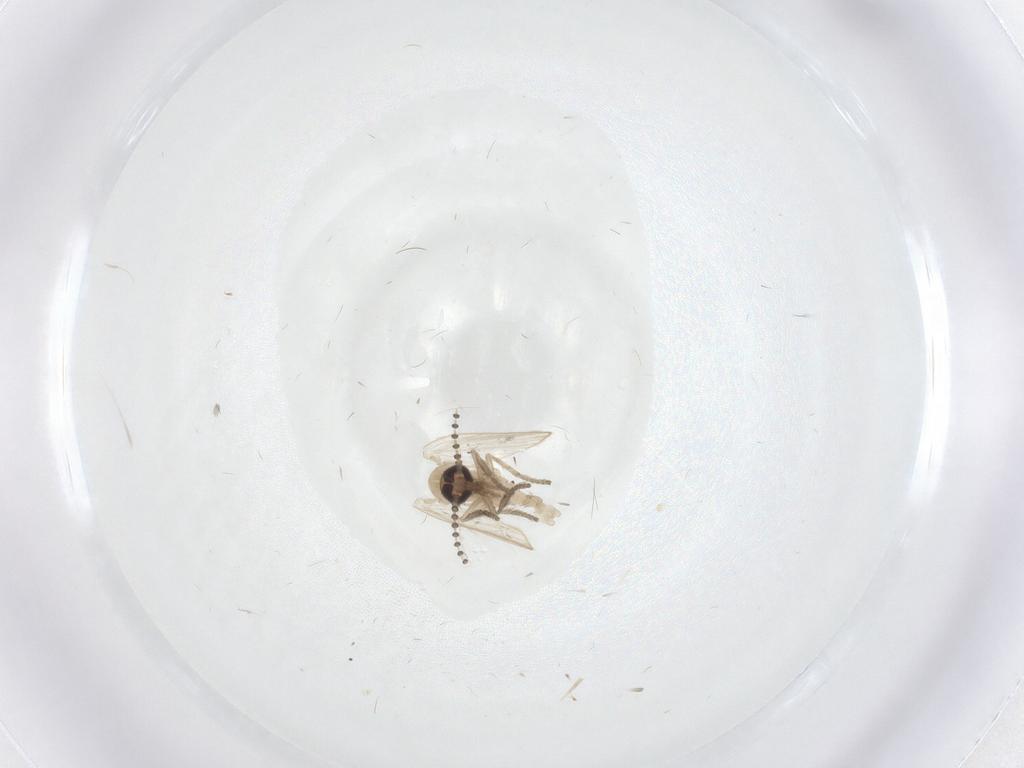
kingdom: Animalia
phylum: Arthropoda
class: Insecta
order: Diptera
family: Psychodidae
